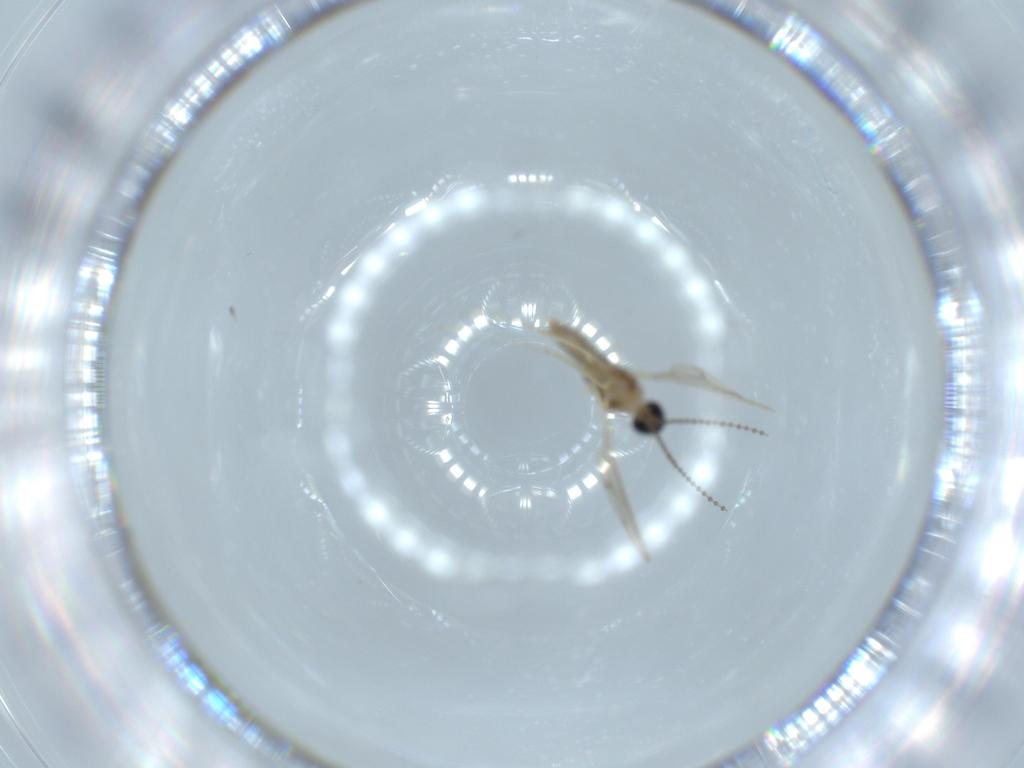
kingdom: Animalia
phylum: Arthropoda
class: Insecta
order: Diptera
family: Cecidomyiidae
